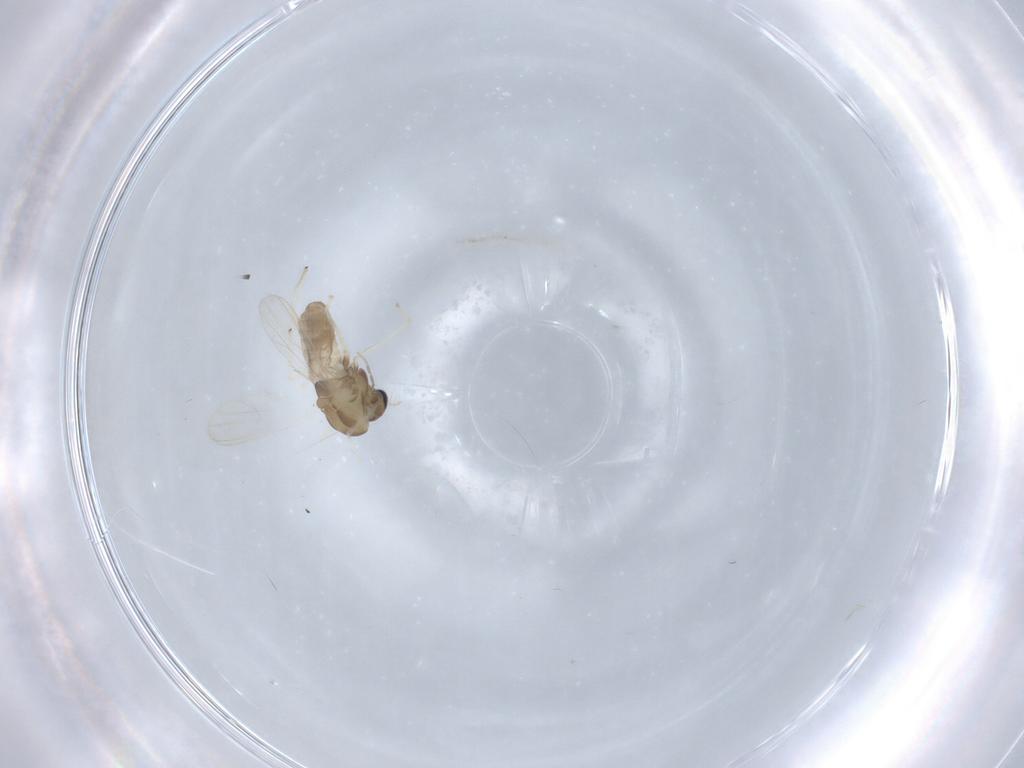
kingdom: Animalia
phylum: Arthropoda
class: Insecta
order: Diptera
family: Chironomidae
